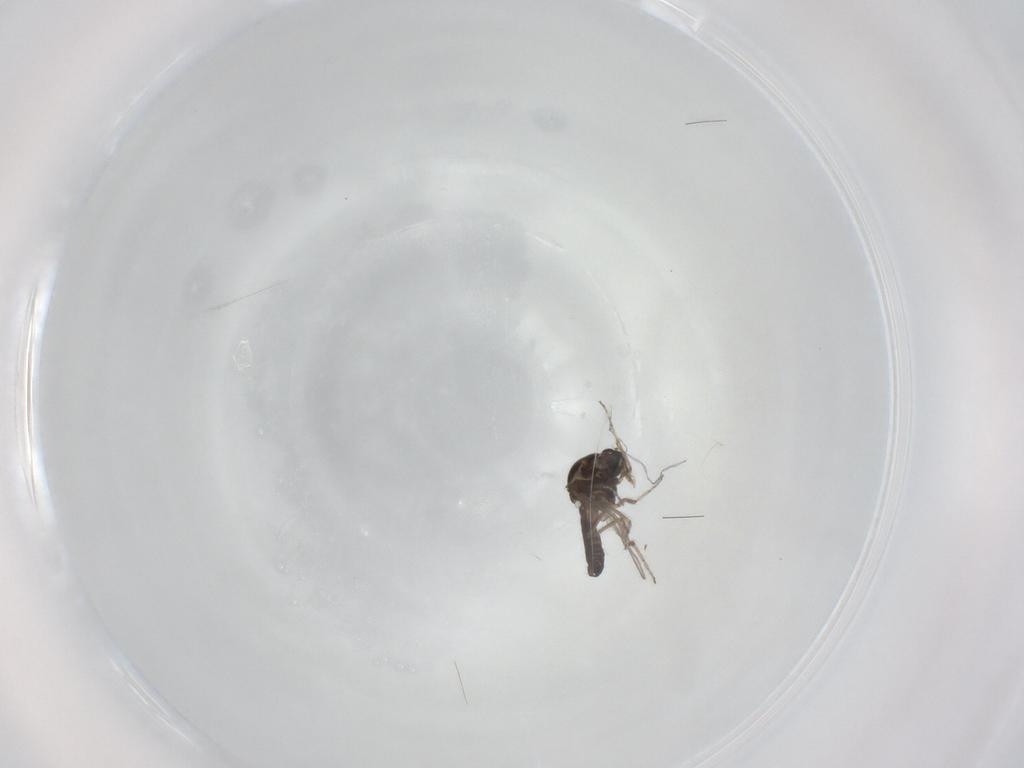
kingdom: Animalia
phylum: Arthropoda
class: Insecta
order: Diptera
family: Ceratopogonidae
